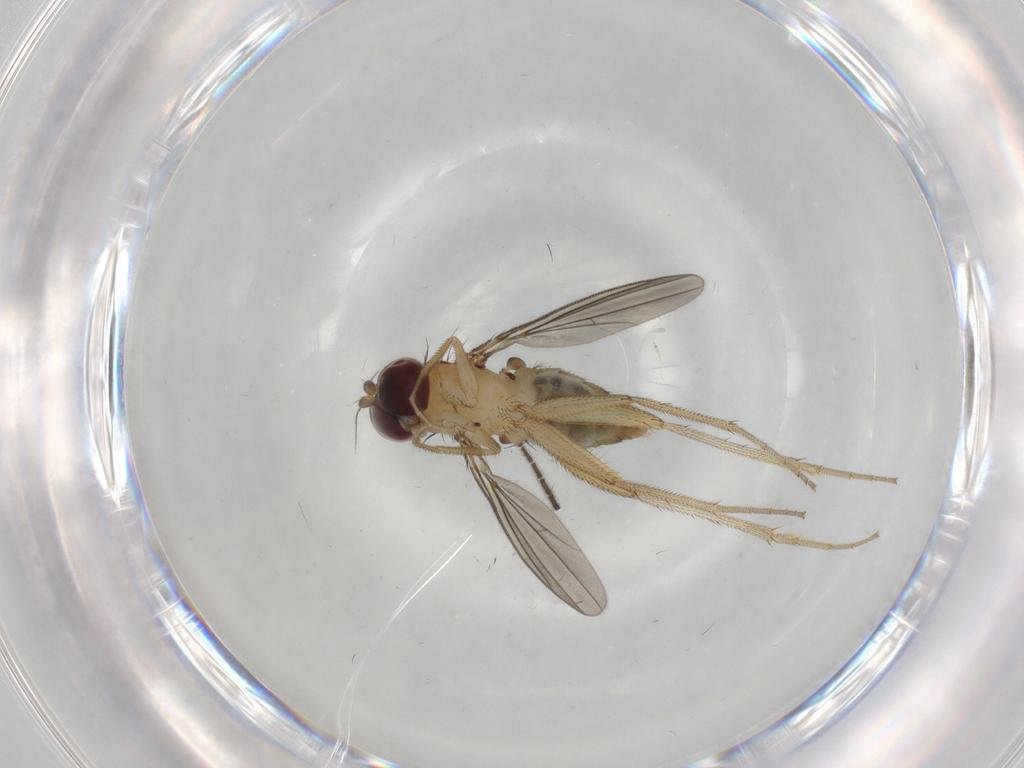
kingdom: Animalia
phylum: Arthropoda
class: Insecta
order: Diptera
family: Dolichopodidae
